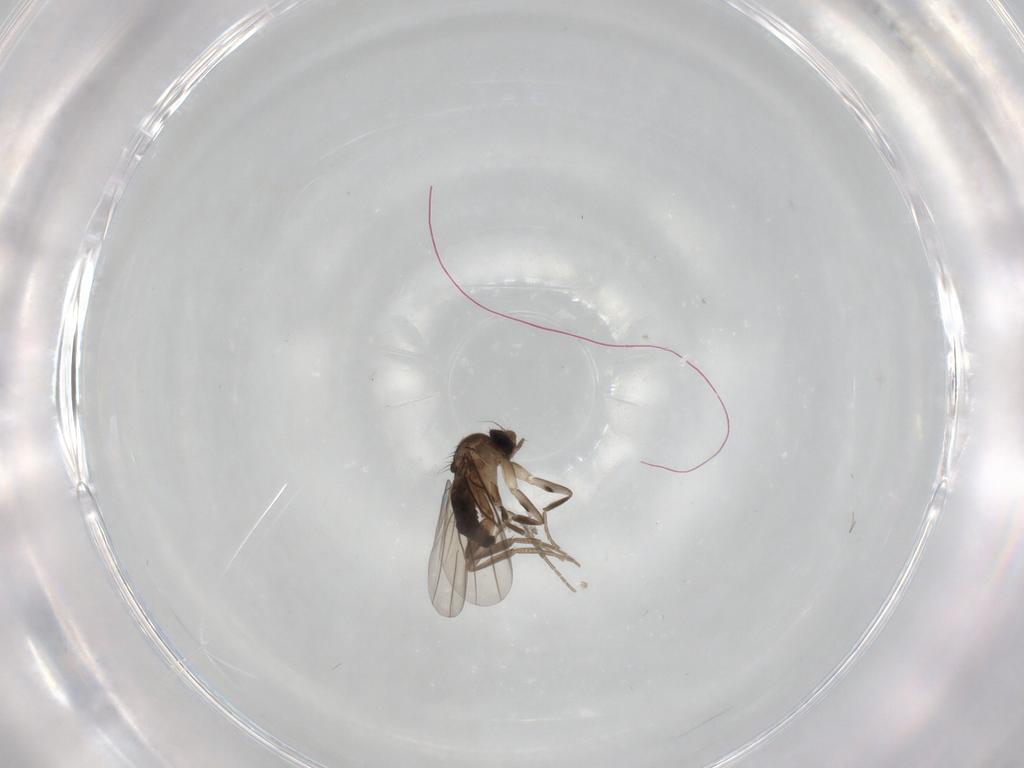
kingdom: Animalia
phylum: Arthropoda
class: Insecta
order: Diptera
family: Phoridae
